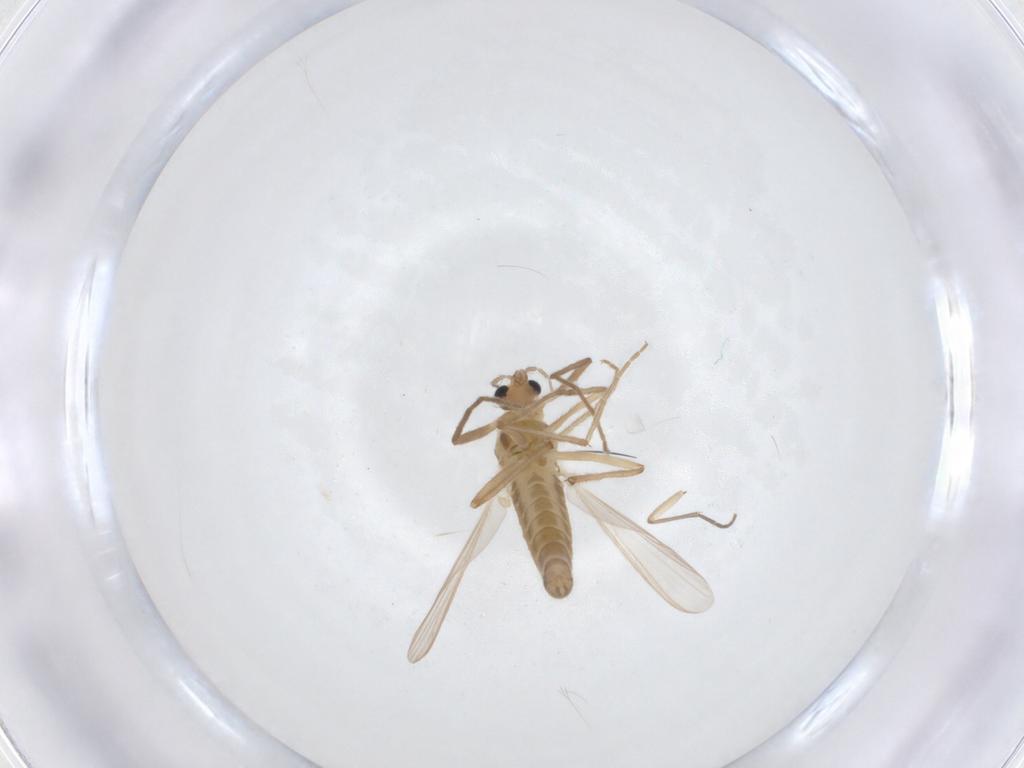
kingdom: Animalia
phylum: Arthropoda
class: Insecta
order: Diptera
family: Chironomidae
